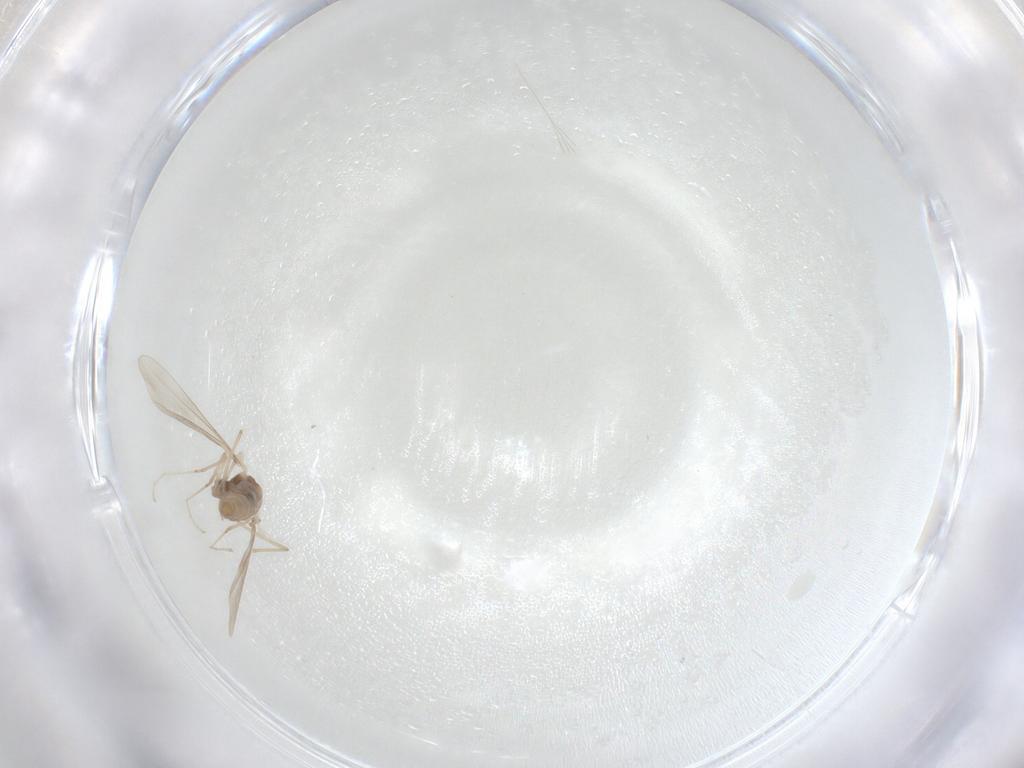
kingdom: Animalia
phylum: Arthropoda
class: Insecta
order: Diptera
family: Cecidomyiidae
